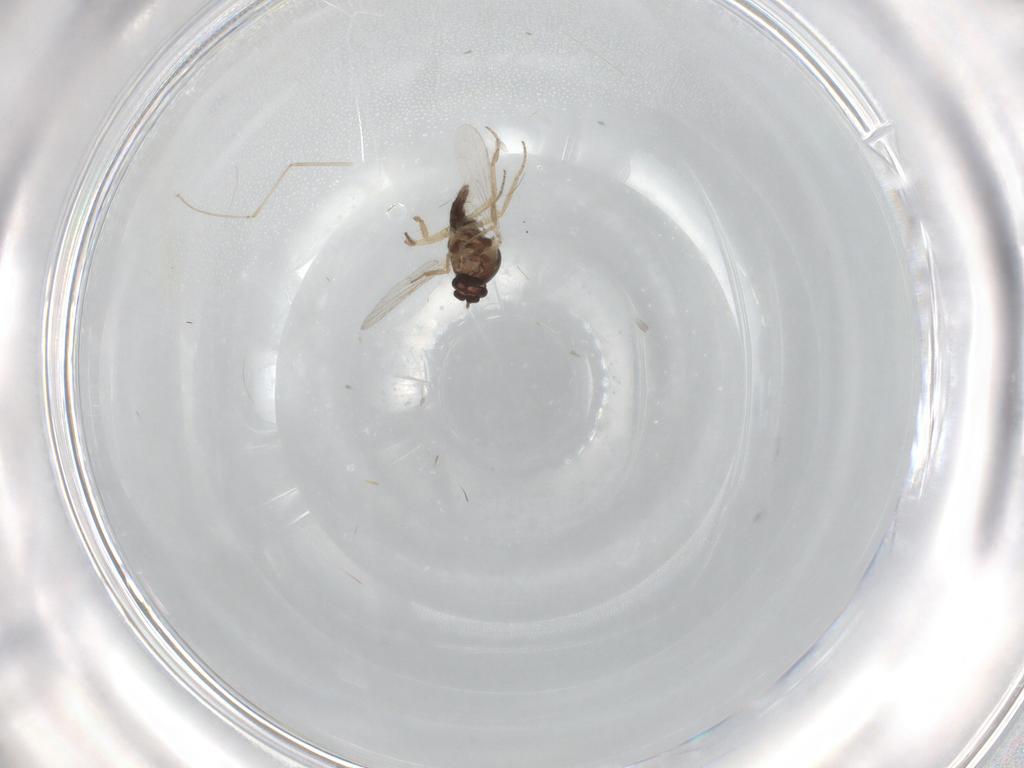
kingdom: Animalia
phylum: Arthropoda
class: Insecta
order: Diptera
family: Cecidomyiidae
